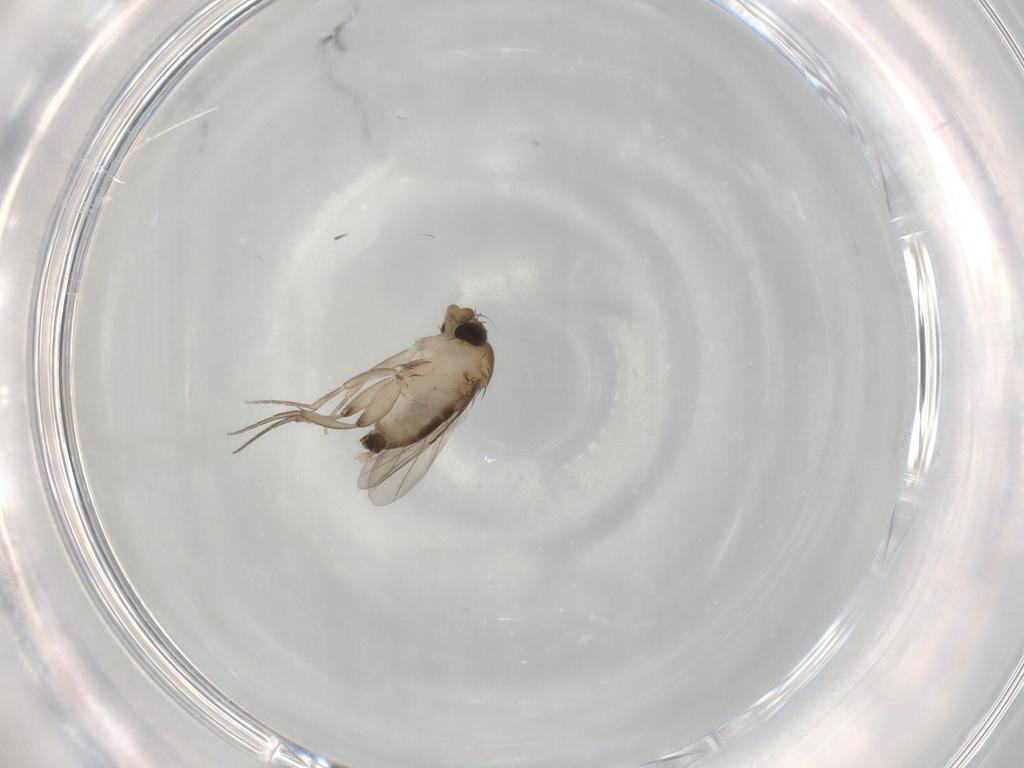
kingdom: Animalia
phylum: Arthropoda
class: Insecta
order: Diptera
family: Phoridae
